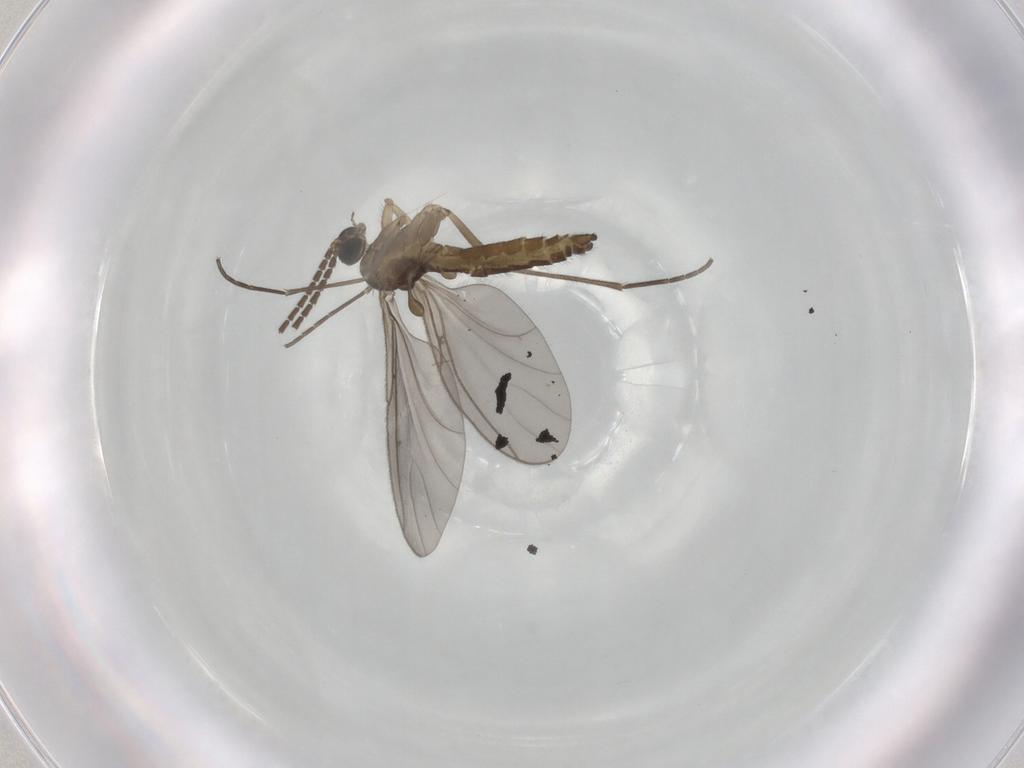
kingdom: Animalia
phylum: Arthropoda
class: Insecta
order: Diptera
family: Sciaridae
